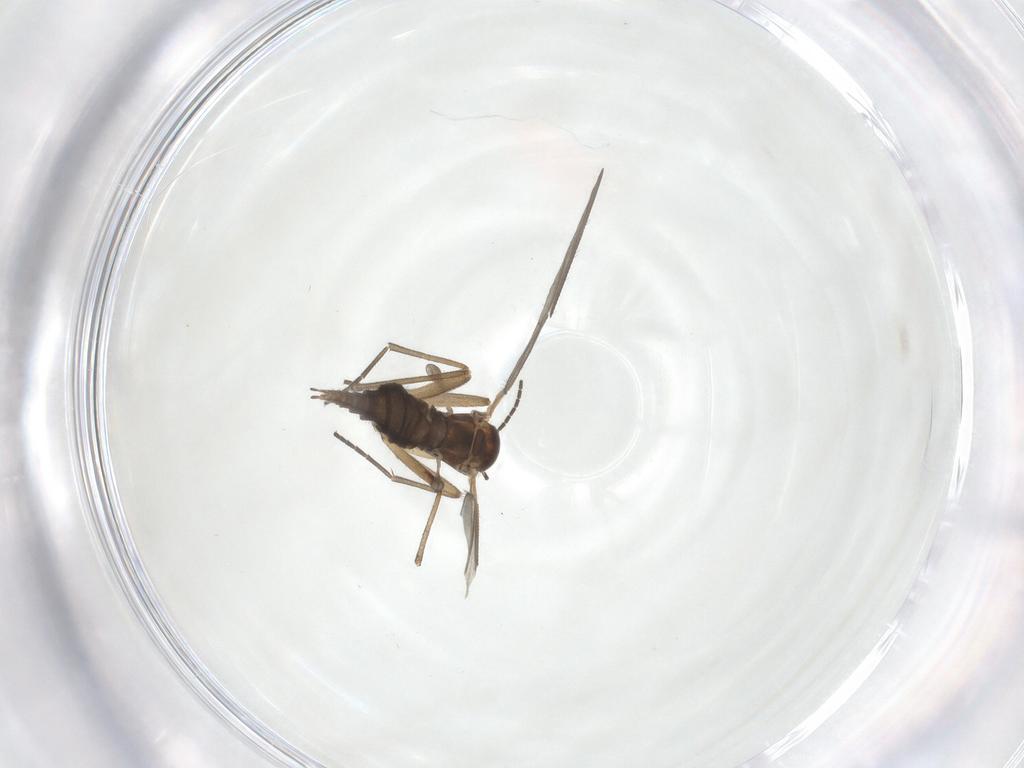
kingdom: Animalia
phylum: Arthropoda
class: Insecta
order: Diptera
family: Sciaridae
